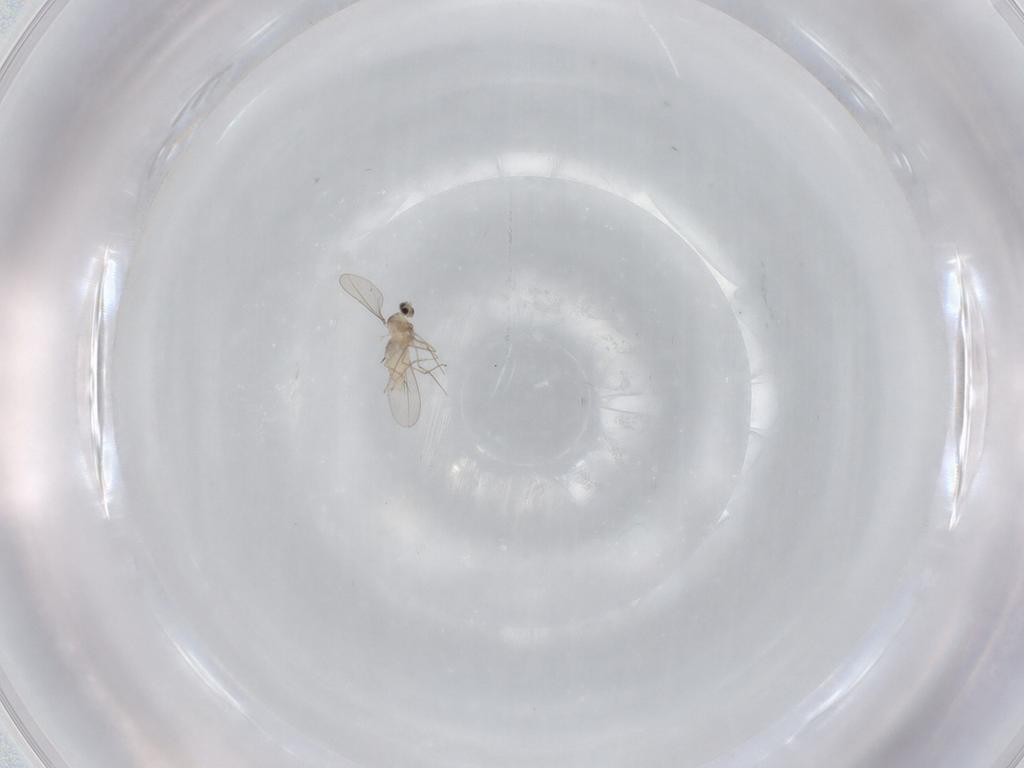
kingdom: Animalia
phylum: Arthropoda
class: Insecta
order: Diptera
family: Cecidomyiidae
